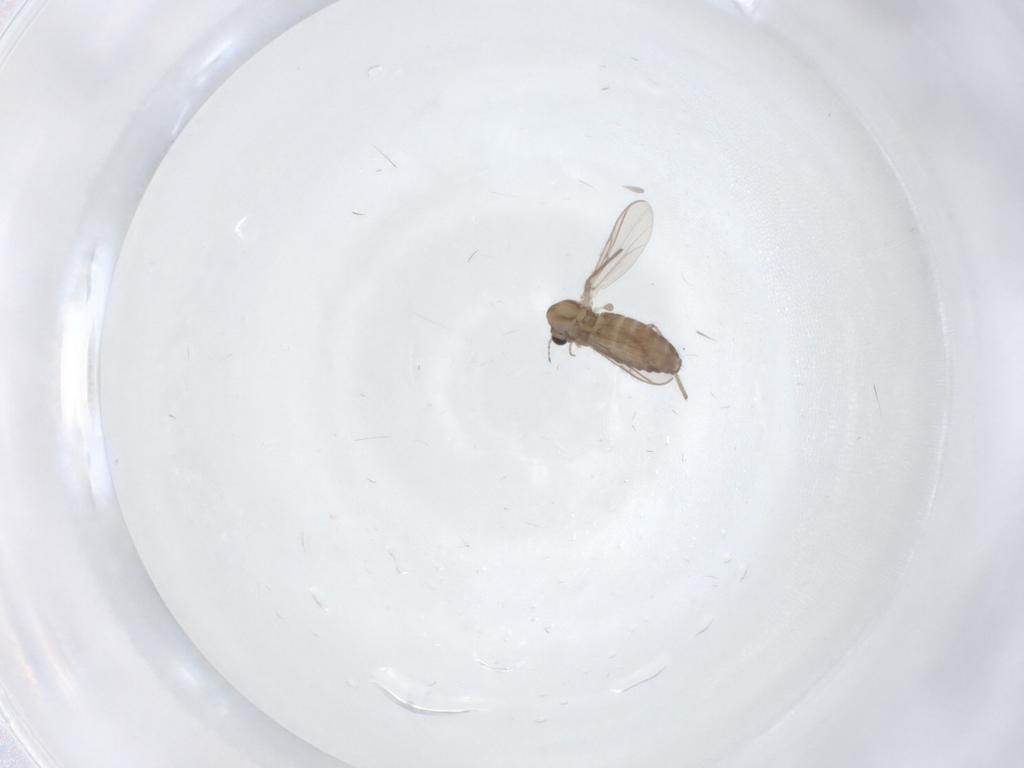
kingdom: Animalia
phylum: Arthropoda
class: Insecta
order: Diptera
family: Chironomidae
